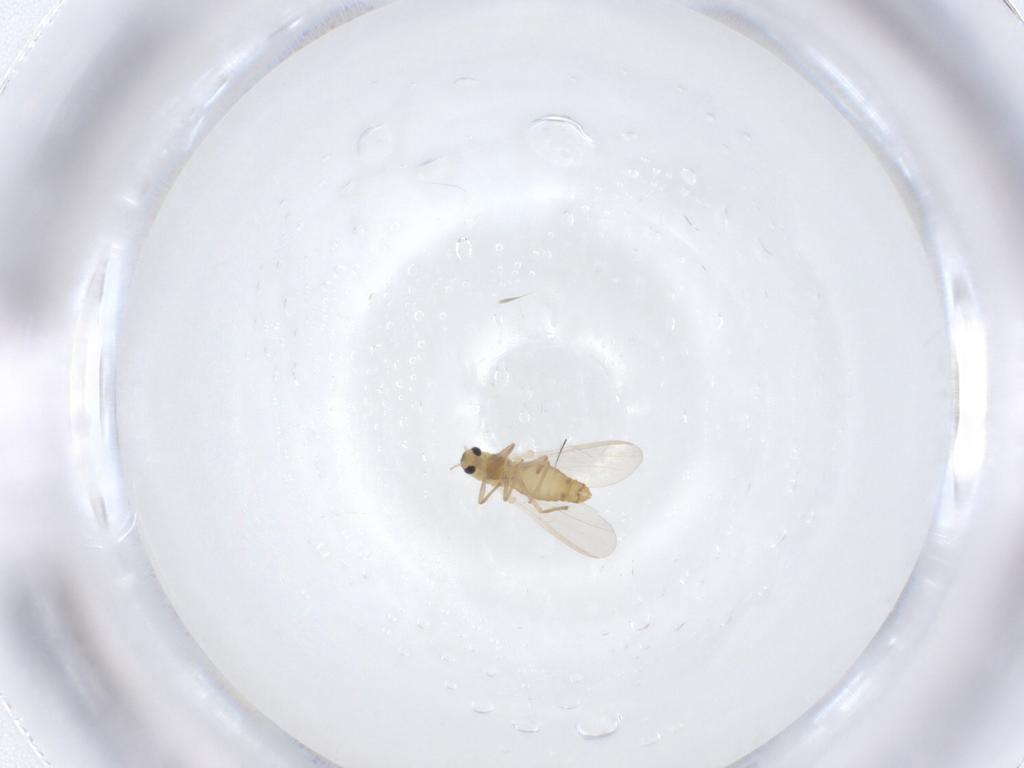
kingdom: Animalia
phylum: Arthropoda
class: Insecta
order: Diptera
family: Chironomidae
